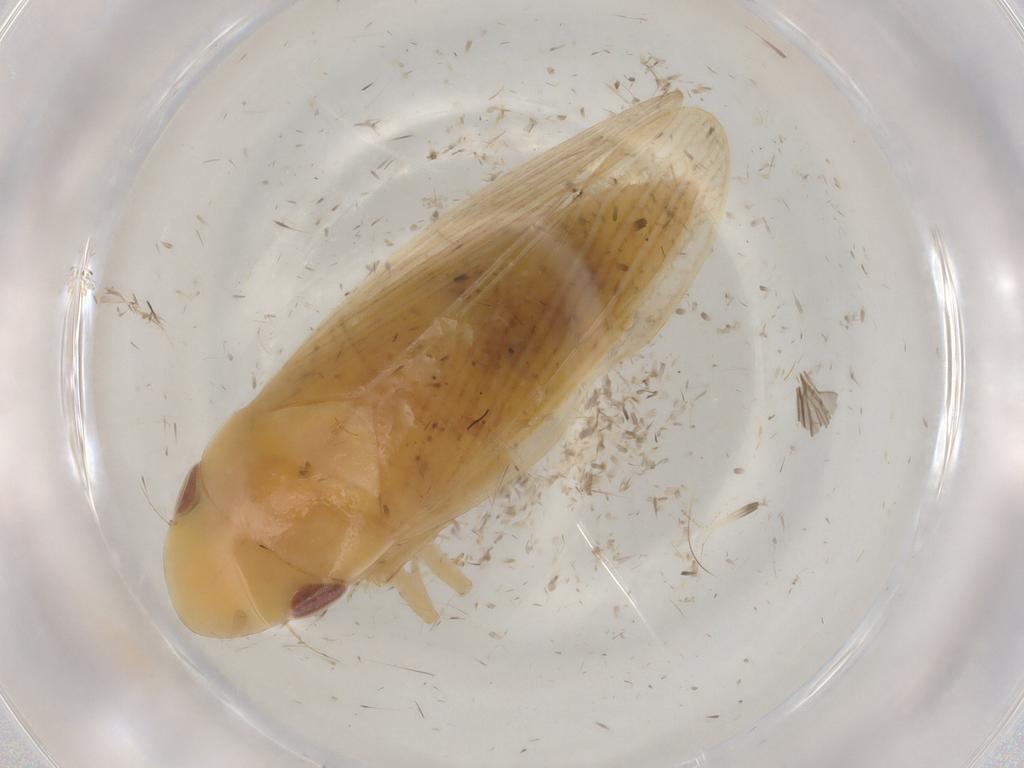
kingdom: Animalia
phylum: Arthropoda
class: Insecta
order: Hemiptera
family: Cicadellidae
